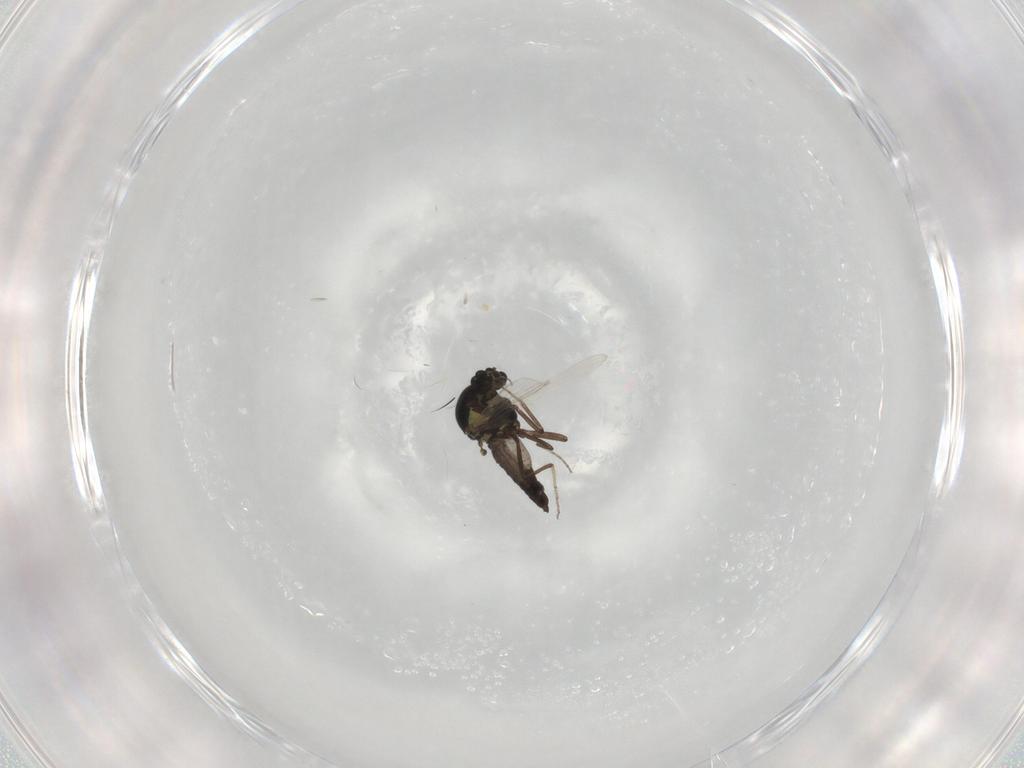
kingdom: Animalia
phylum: Arthropoda
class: Insecta
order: Diptera
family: Ceratopogonidae
